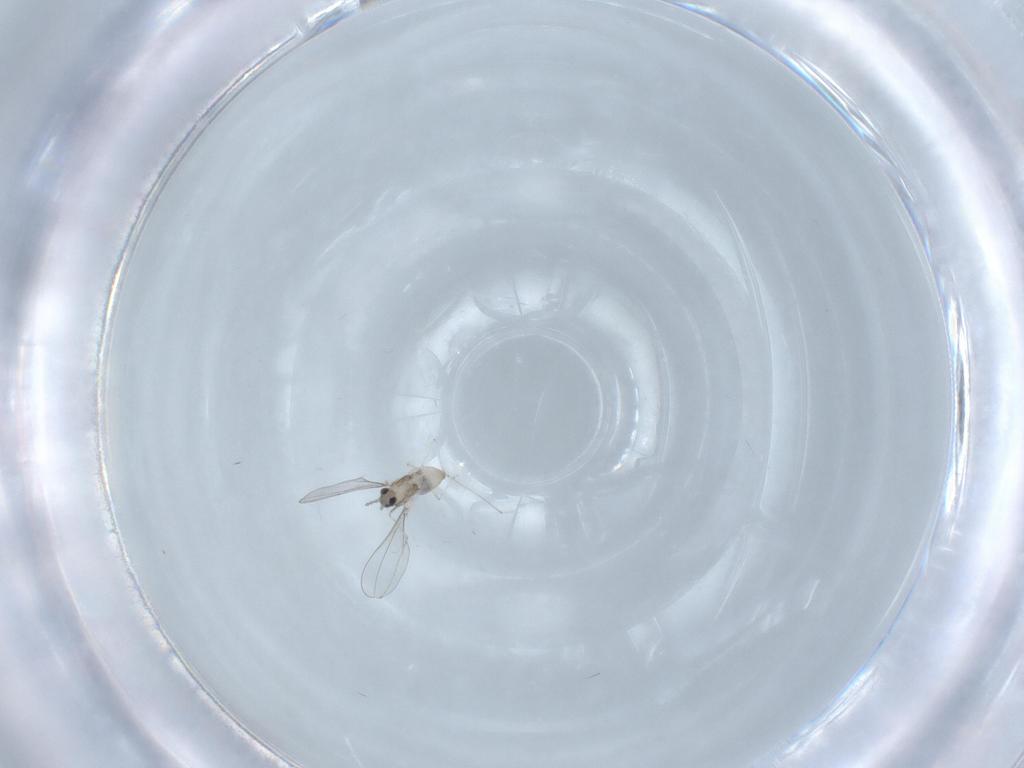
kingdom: Animalia
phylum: Arthropoda
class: Insecta
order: Diptera
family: Cecidomyiidae
